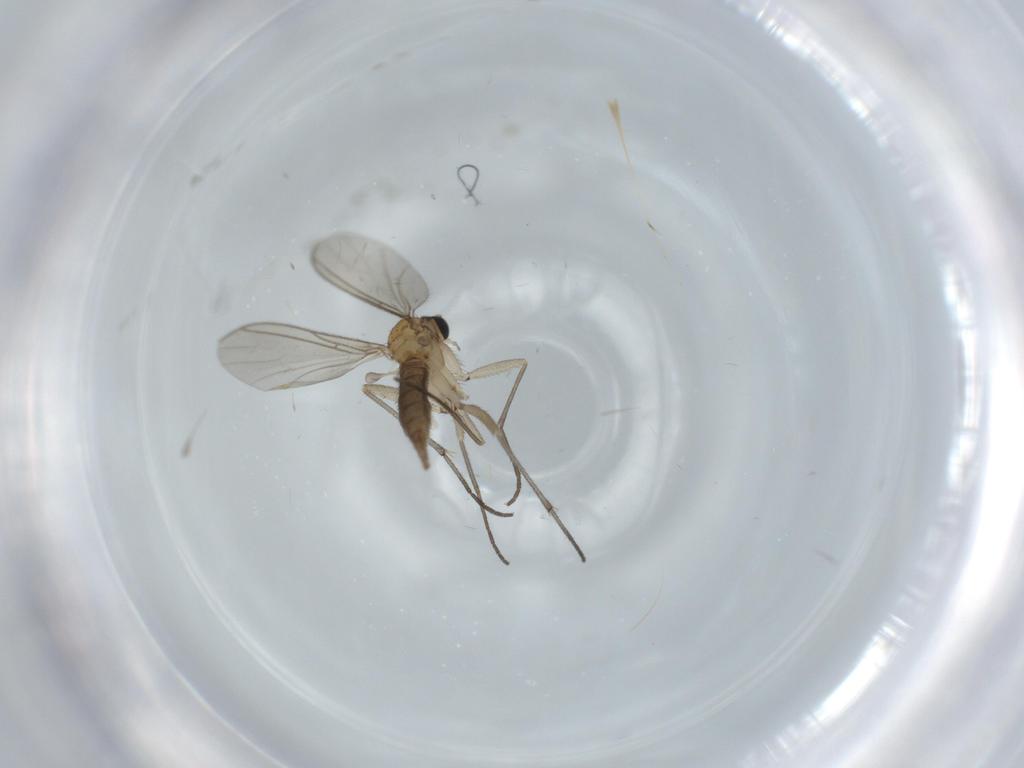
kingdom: Animalia
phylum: Arthropoda
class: Insecta
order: Diptera
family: Sciaridae
